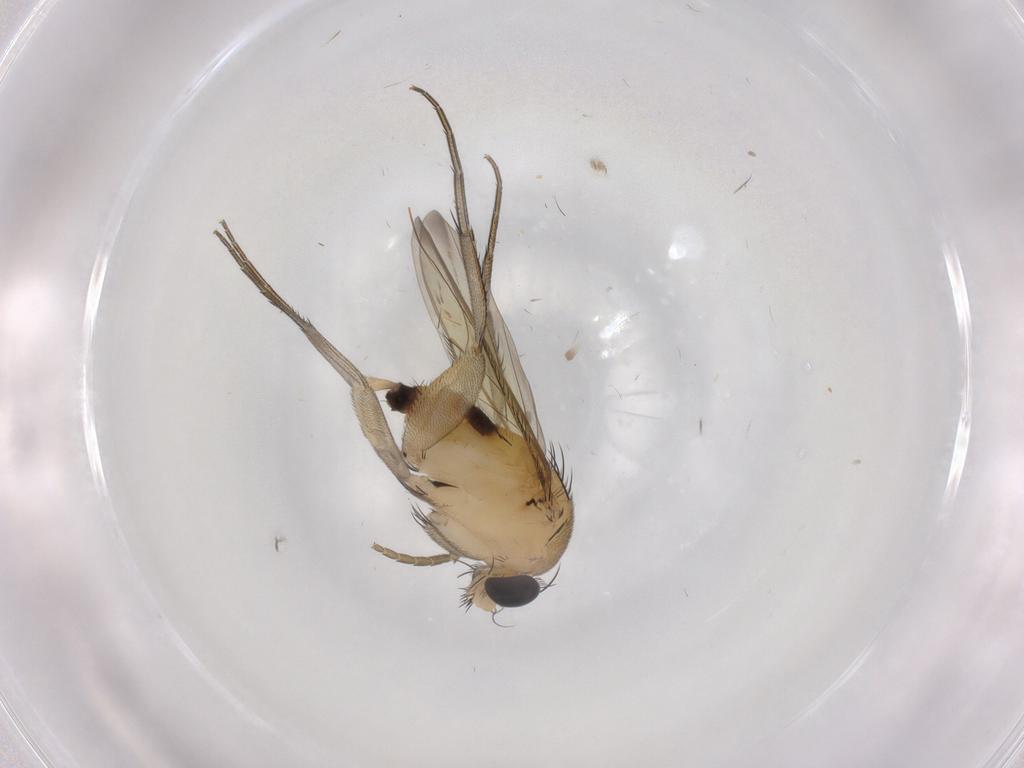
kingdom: Animalia
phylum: Arthropoda
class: Insecta
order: Diptera
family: Phoridae
